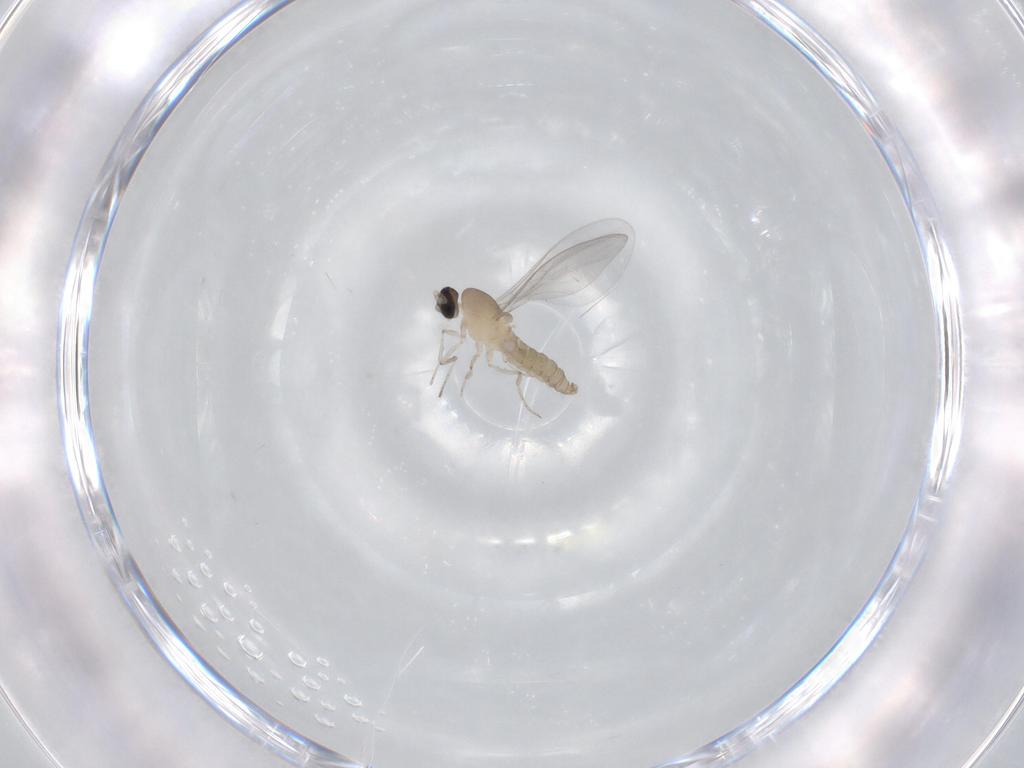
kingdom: Animalia
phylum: Arthropoda
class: Insecta
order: Diptera
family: Cecidomyiidae
